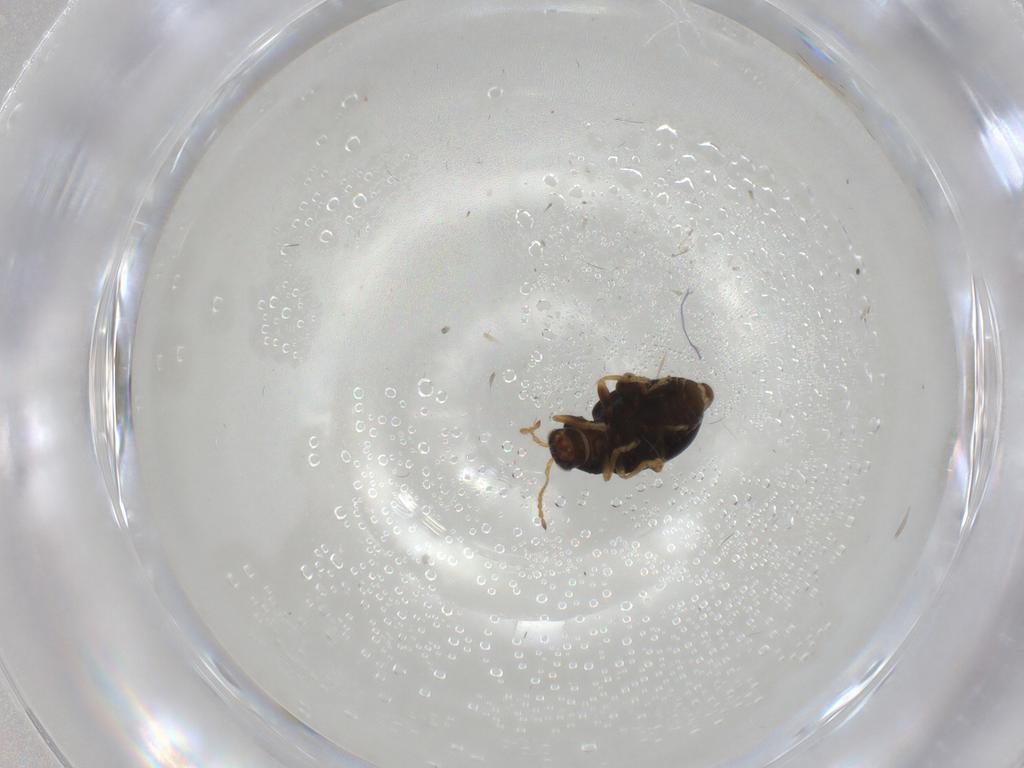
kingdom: Animalia
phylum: Arthropoda
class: Insecta
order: Coleoptera
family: Chrysomelidae
